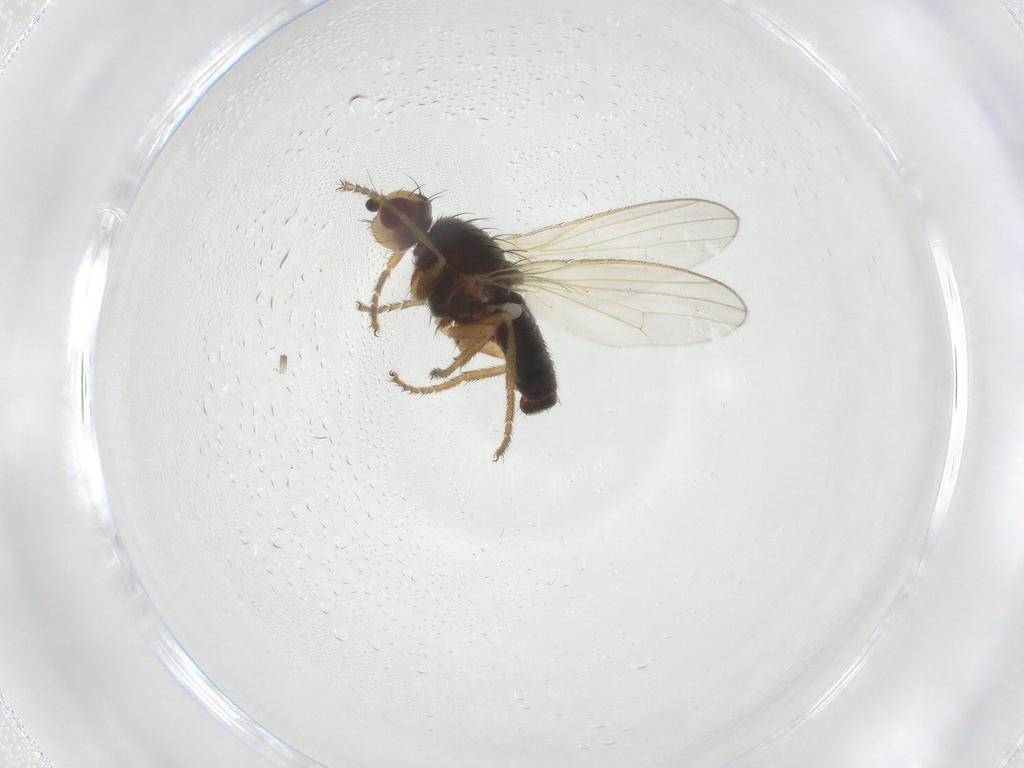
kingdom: Animalia
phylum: Arthropoda
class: Insecta
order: Diptera
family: Heleomyzidae
